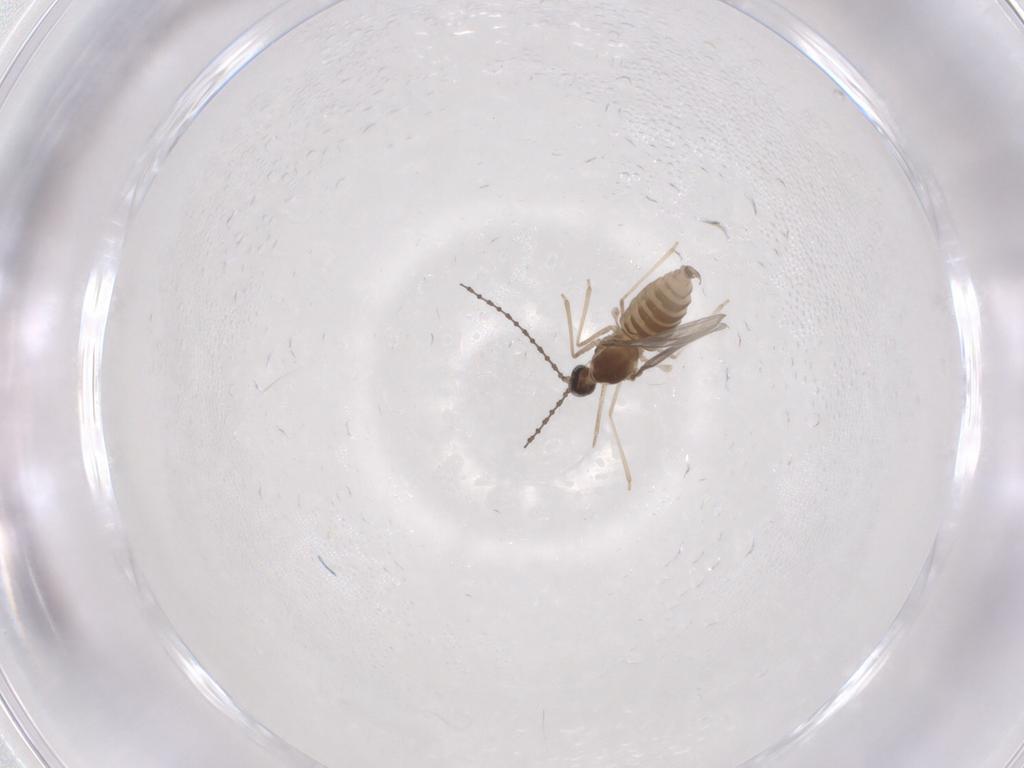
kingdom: Animalia
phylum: Arthropoda
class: Insecta
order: Diptera
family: Cecidomyiidae
